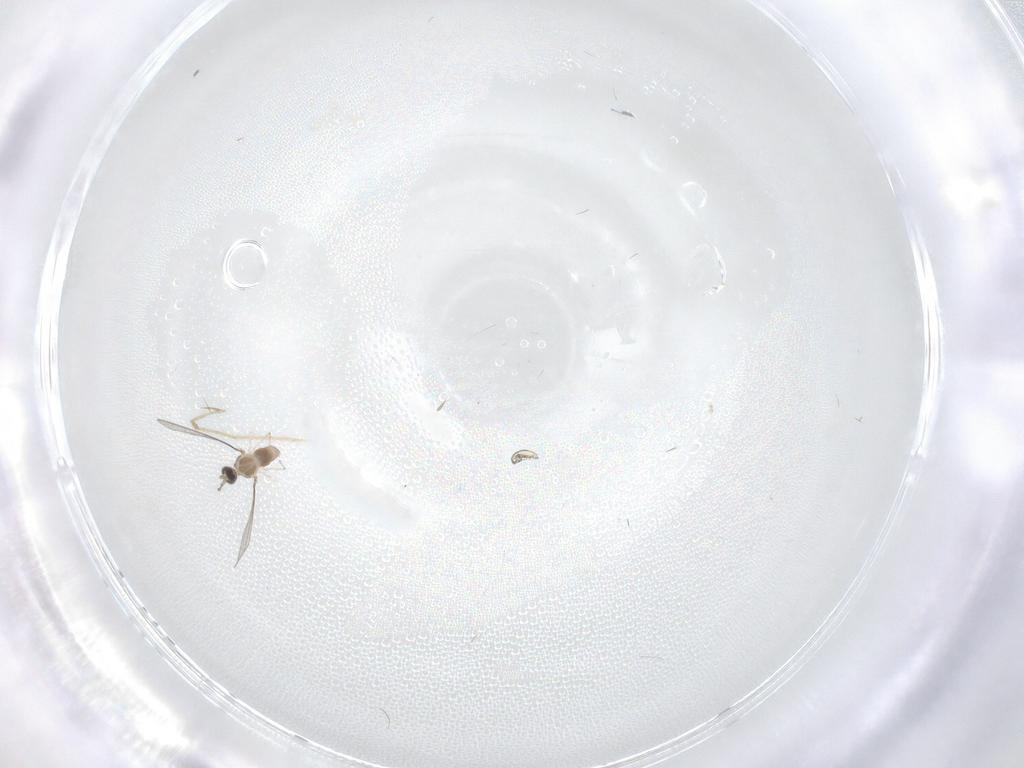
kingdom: Animalia
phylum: Arthropoda
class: Insecta
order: Diptera
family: Cecidomyiidae
